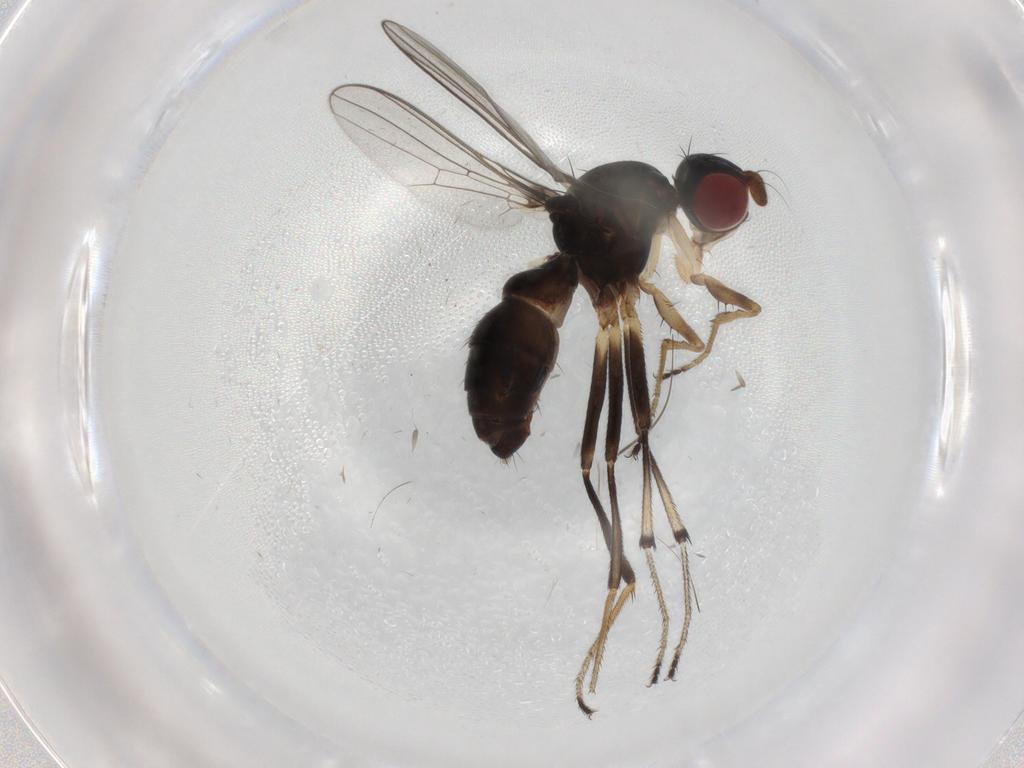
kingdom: Animalia
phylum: Arthropoda
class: Insecta
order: Diptera
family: Sepsidae
